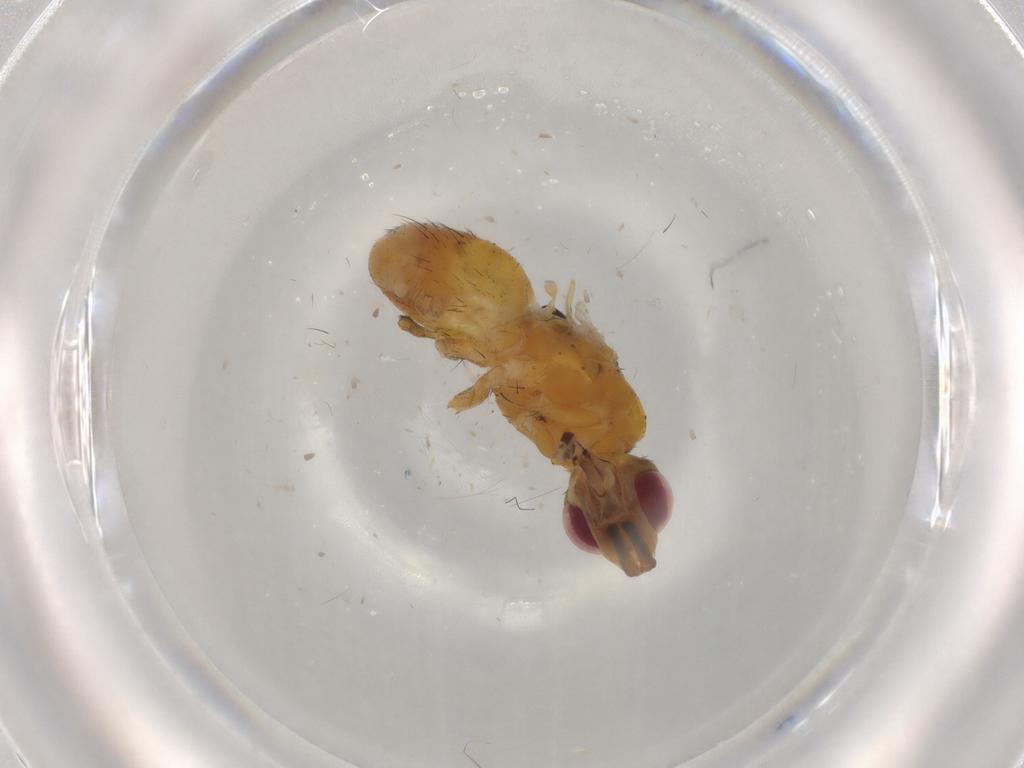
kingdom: Animalia
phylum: Arthropoda
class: Insecta
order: Diptera
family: Muscidae
